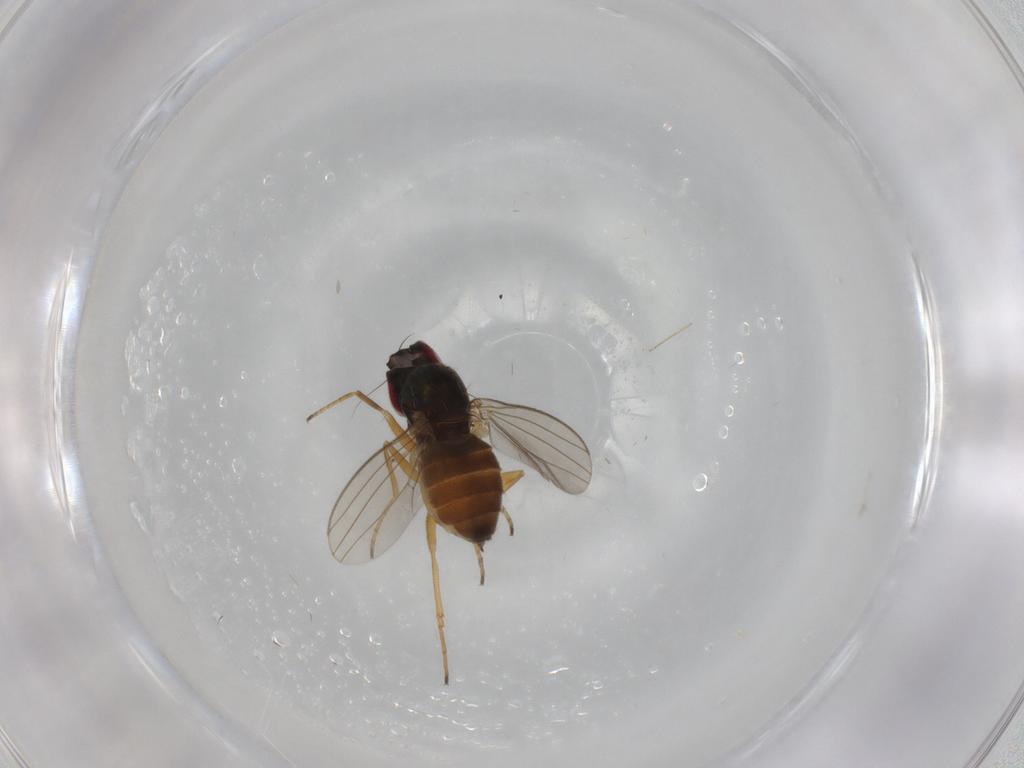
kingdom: Animalia
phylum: Arthropoda
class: Insecta
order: Diptera
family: Dolichopodidae
